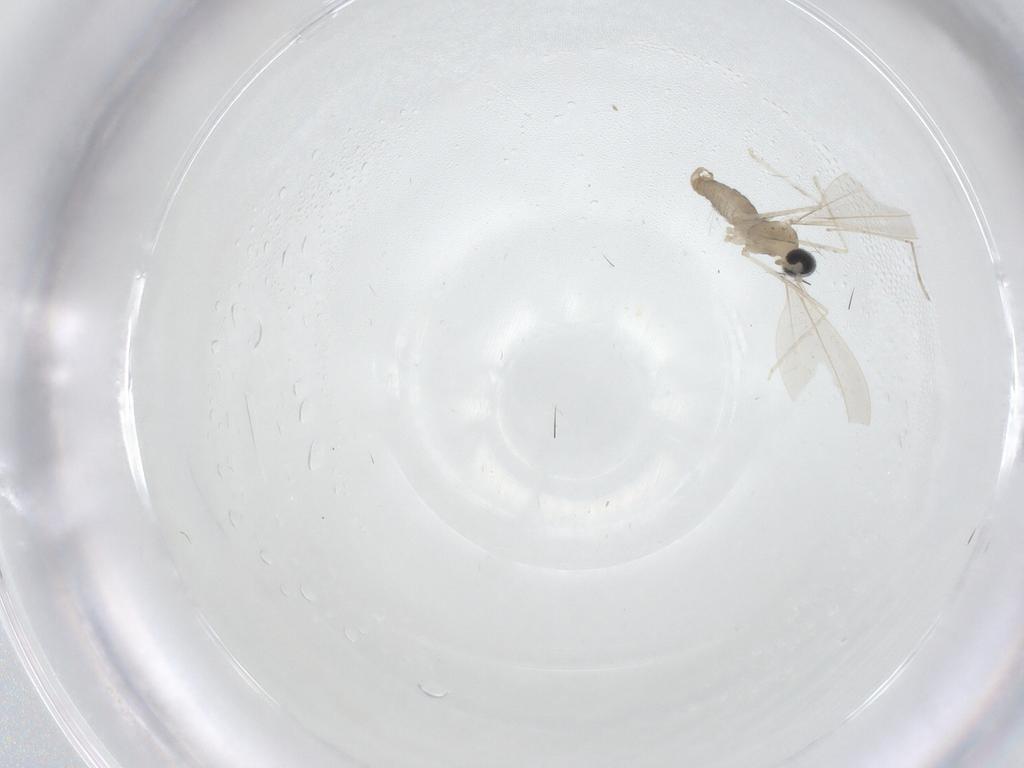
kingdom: Animalia
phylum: Arthropoda
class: Insecta
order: Diptera
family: Cecidomyiidae
